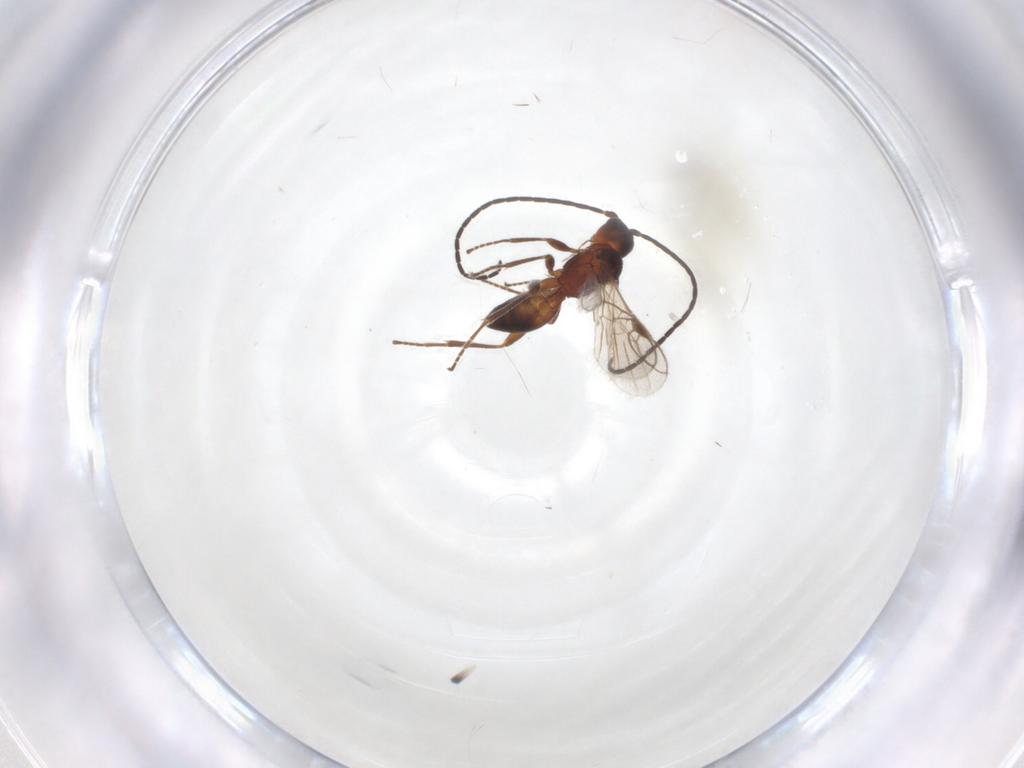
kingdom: Animalia
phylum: Arthropoda
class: Insecta
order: Hymenoptera
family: Braconidae
